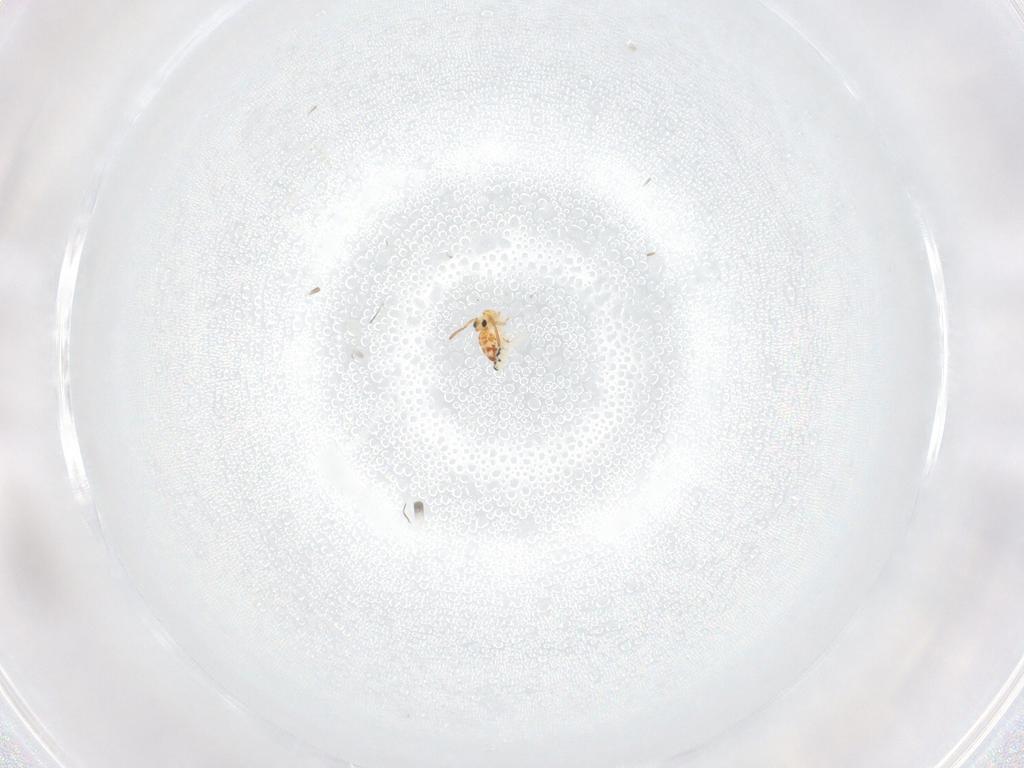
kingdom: Animalia
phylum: Arthropoda
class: Collembola
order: Symphypleona
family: Bourletiellidae
